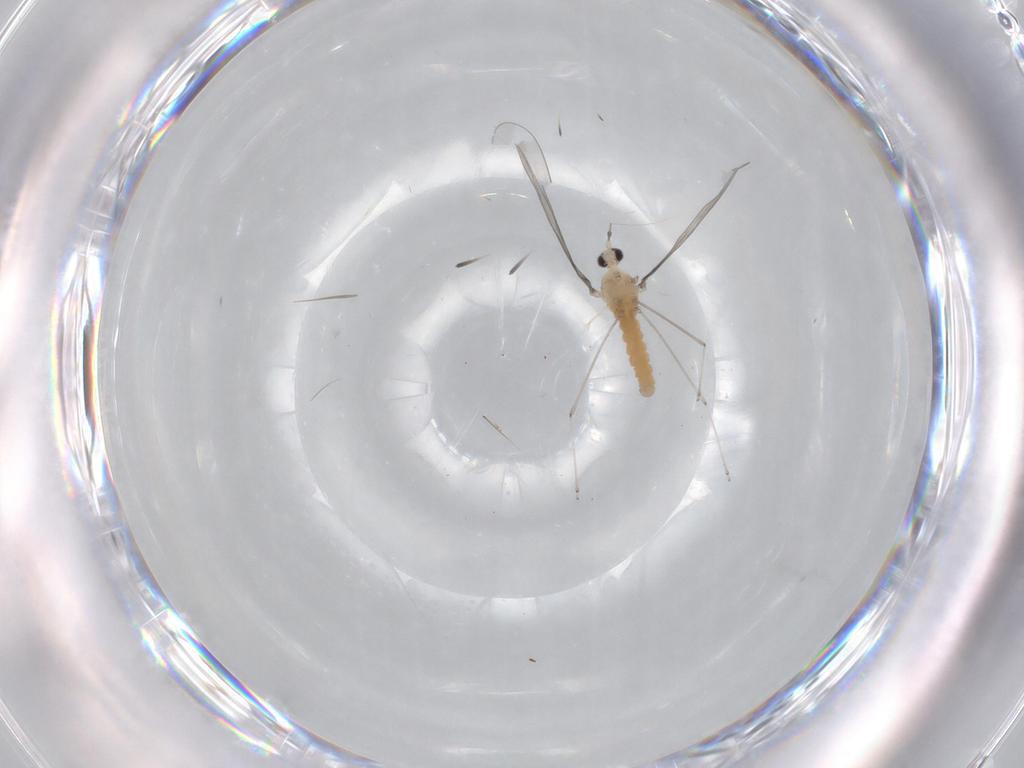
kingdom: Animalia
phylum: Arthropoda
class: Insecta
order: Diptera
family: Cecidomyiidae
